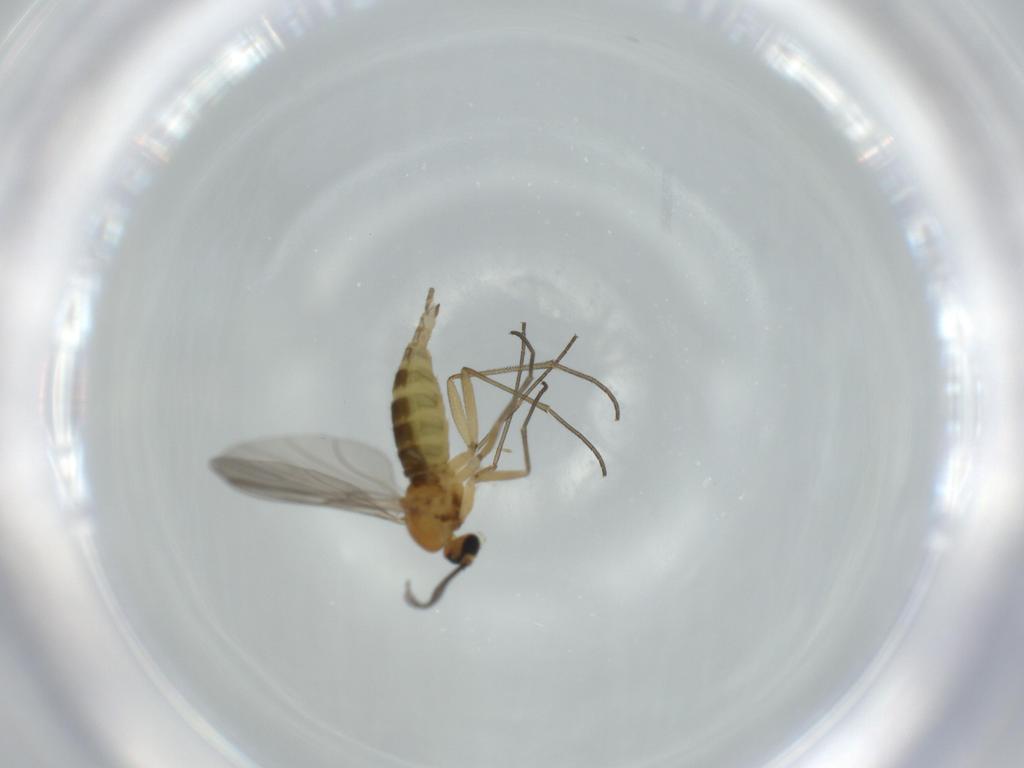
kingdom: Animalia
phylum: Arthropoda
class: Insecta
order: Diptera
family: Sciaridae
